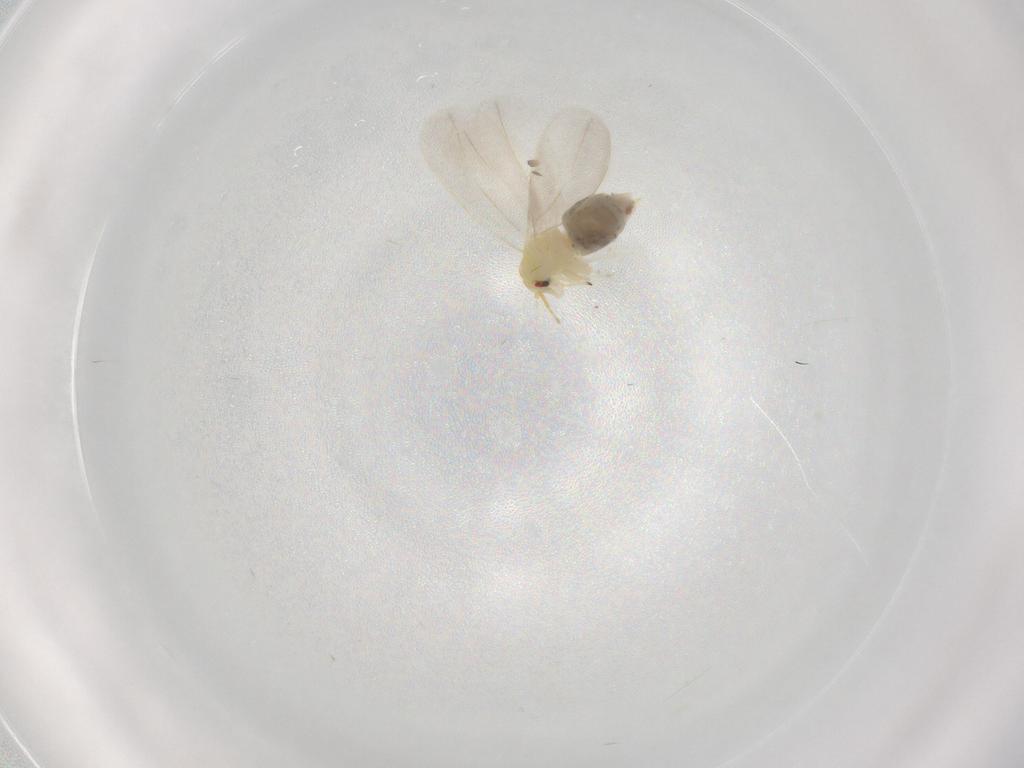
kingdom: Animalia
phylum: Arthropoda
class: Insecta
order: Hemiptera
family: Aleyrodidae
